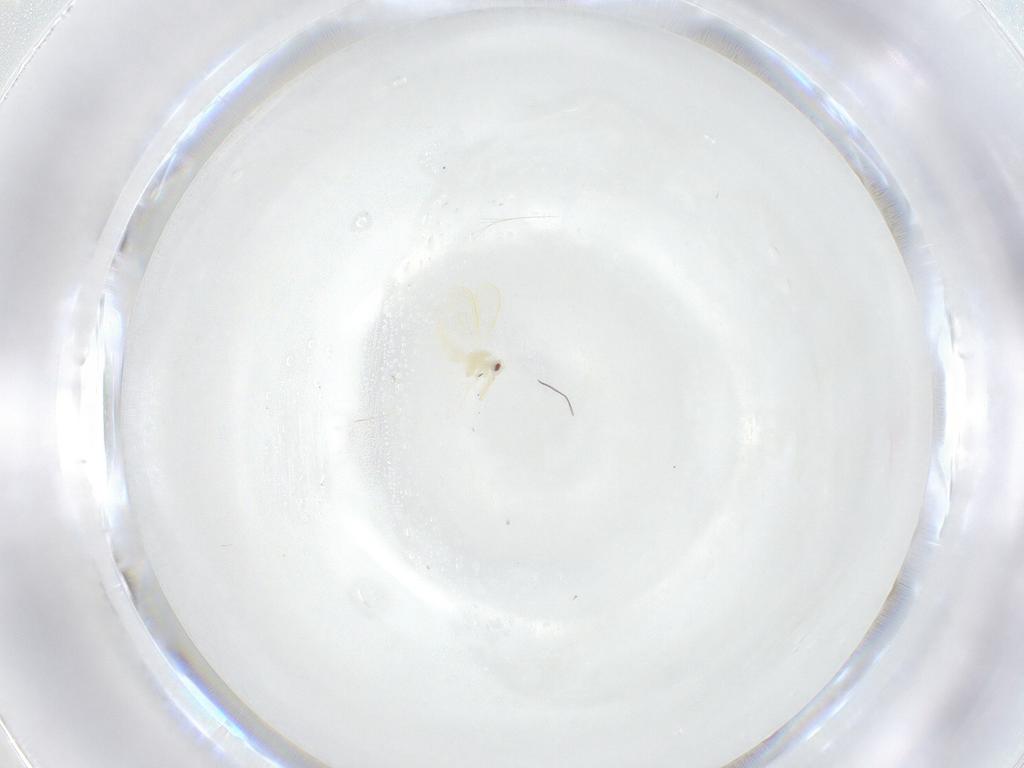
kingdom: Animalia
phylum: Arthropoda
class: Insecta
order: Hemiptera
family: Aleyrodidae
